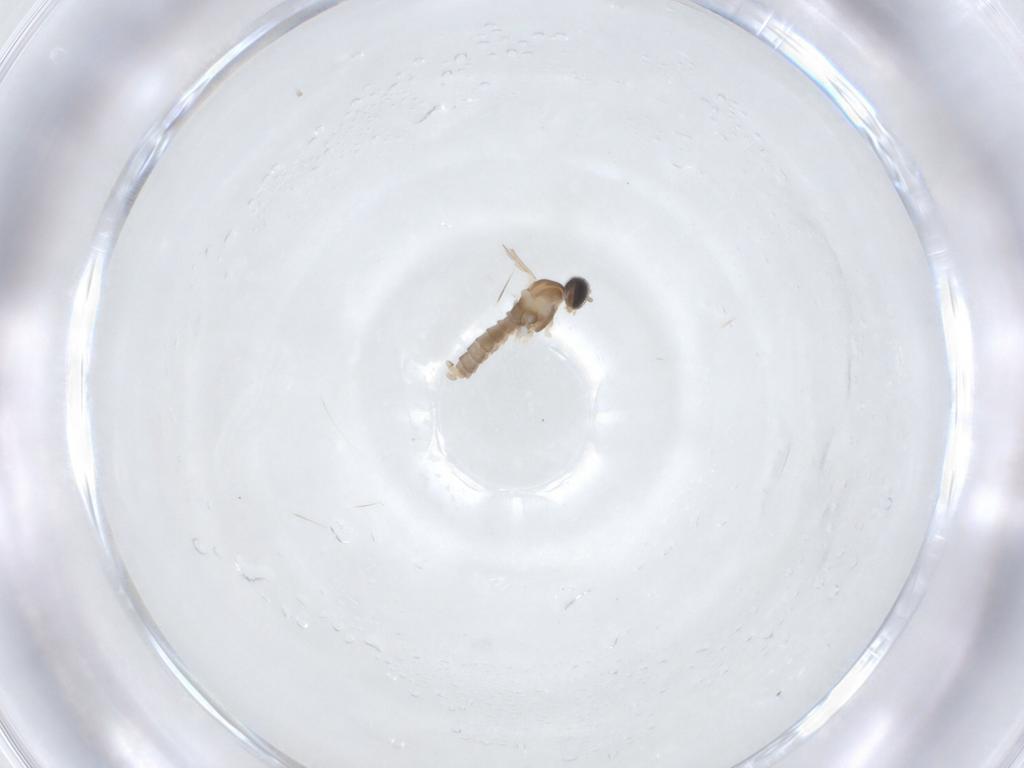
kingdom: Animalia
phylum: Arthropoda
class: Insecta
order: Diptera
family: Cecidomyiidae
